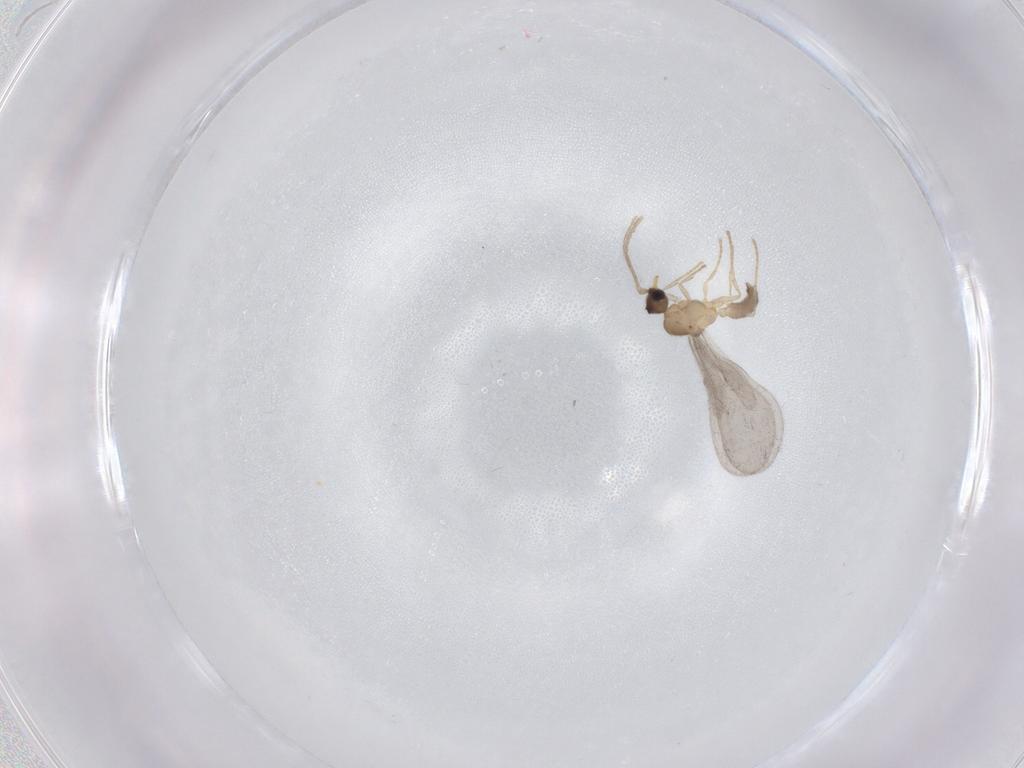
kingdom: Animalia
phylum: Arthropoda
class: Insecta
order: Hymenoptera
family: Formicidae
